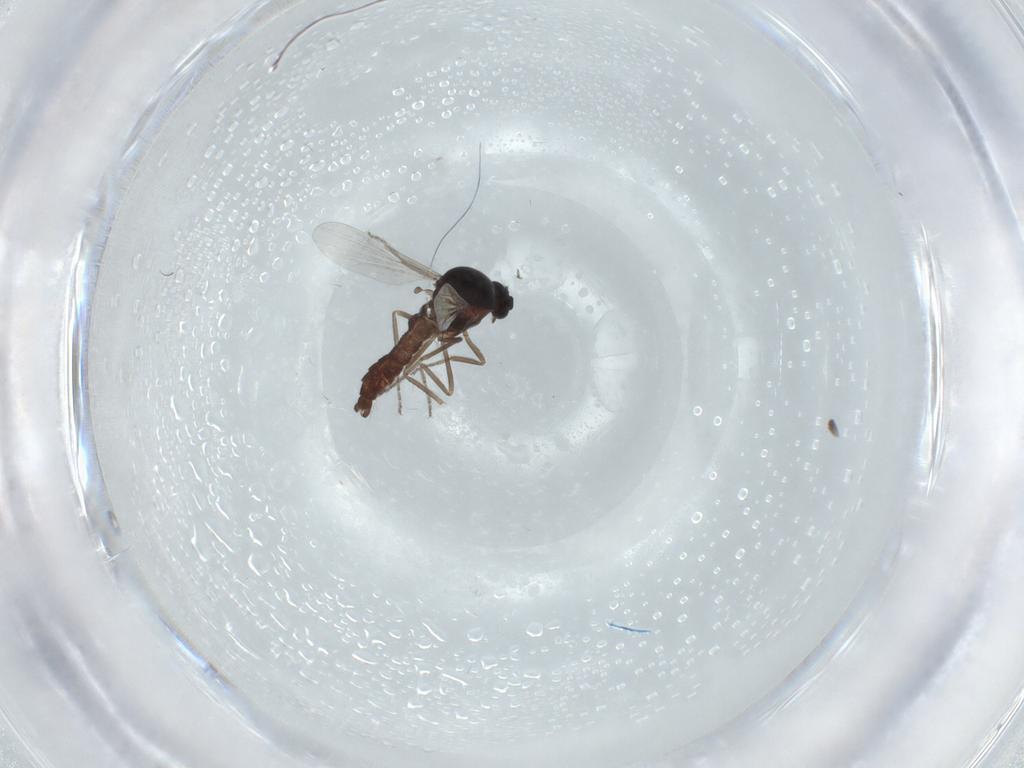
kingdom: Animalia
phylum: Arthropoda
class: Insecta
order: Diptera
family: Ceratopogonidae
